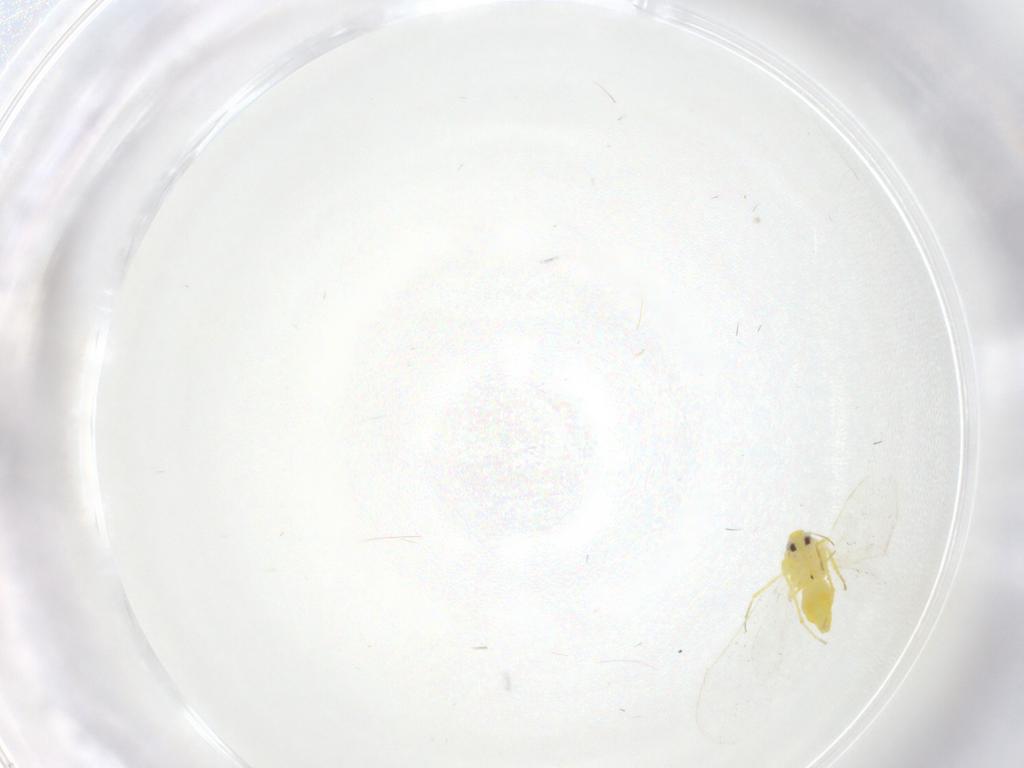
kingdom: Animalia
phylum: Arthropoda
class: Insecta
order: Hemiptera
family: Aleyrodidae
